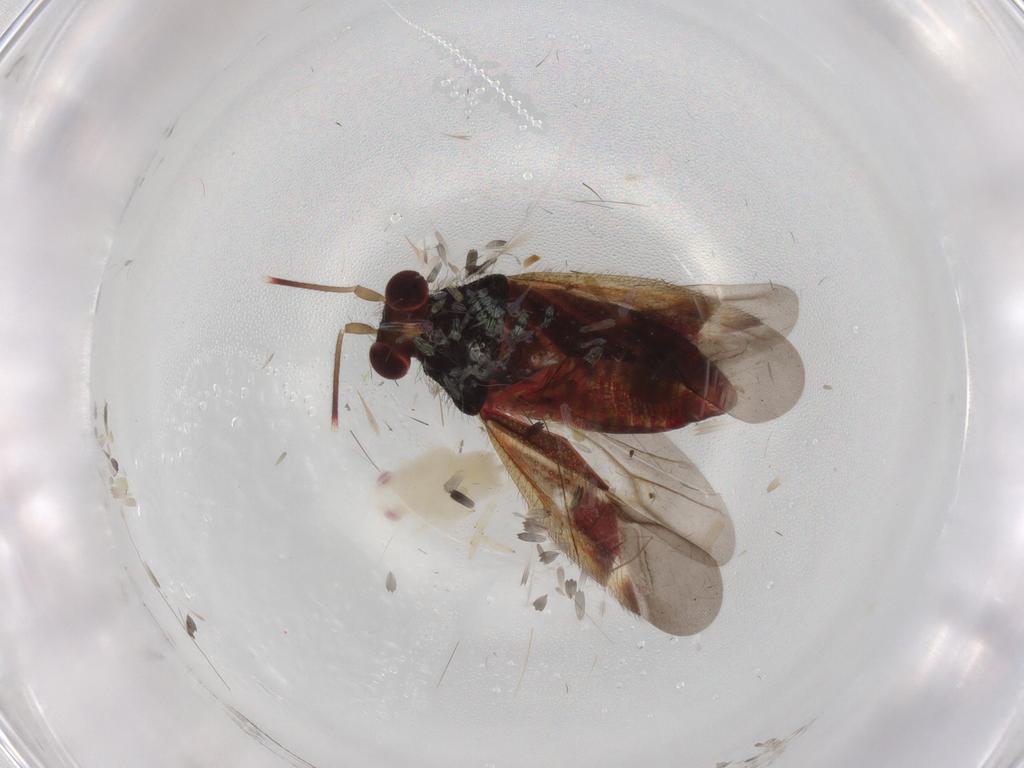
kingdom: Animalia
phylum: Arthropoda
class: Insecta
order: Hemiptera
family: Tropiduchidae
